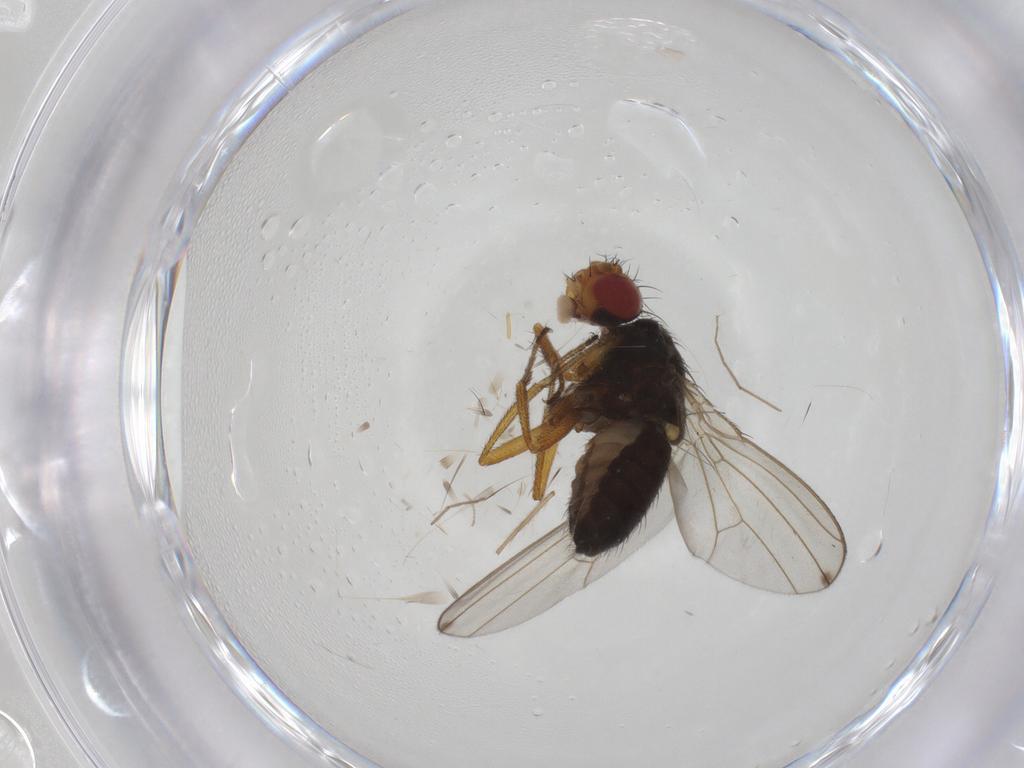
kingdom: Animalia
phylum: Arthropoda
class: Insecta
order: Diptera
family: Drosophilidae
